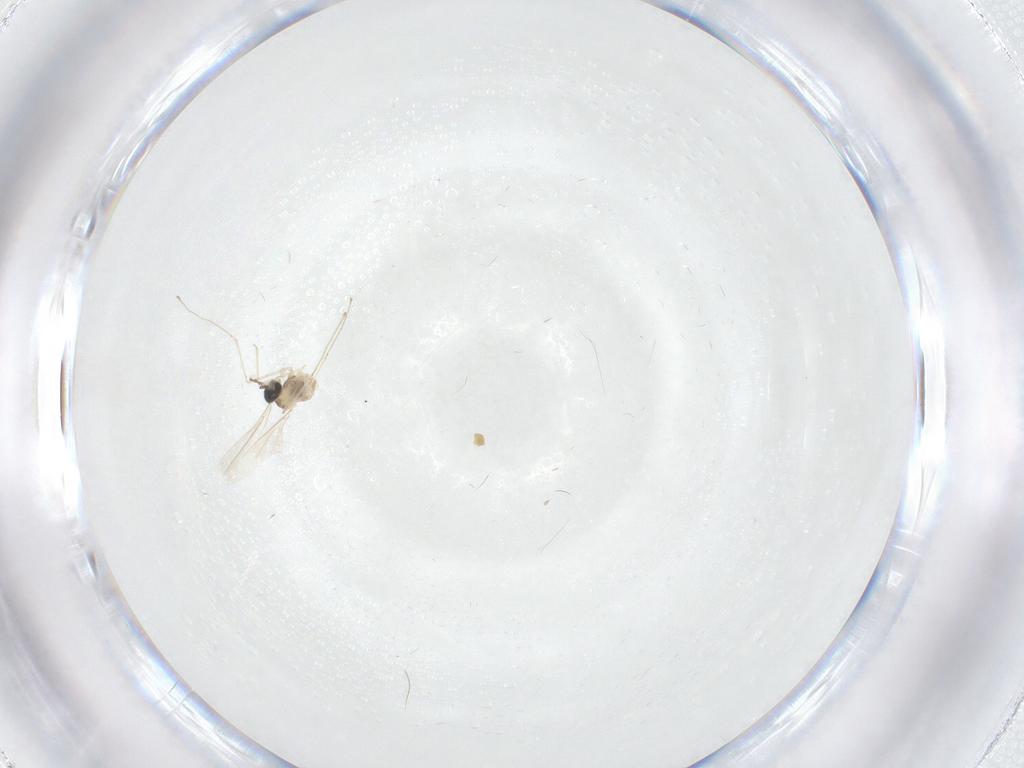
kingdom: Animalia
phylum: Arthropoda
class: Insecta
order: Diptera
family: Cecidomyiidae
